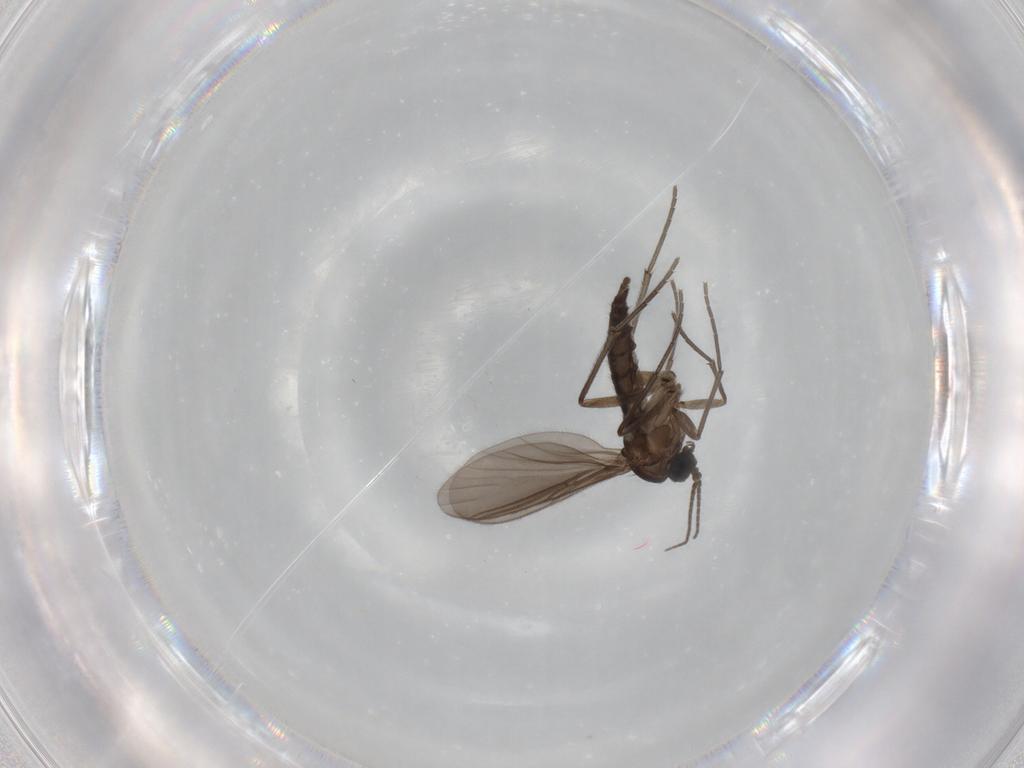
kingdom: Animalia
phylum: Arthropoda
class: Insecta
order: Diptera
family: Sciaridae
